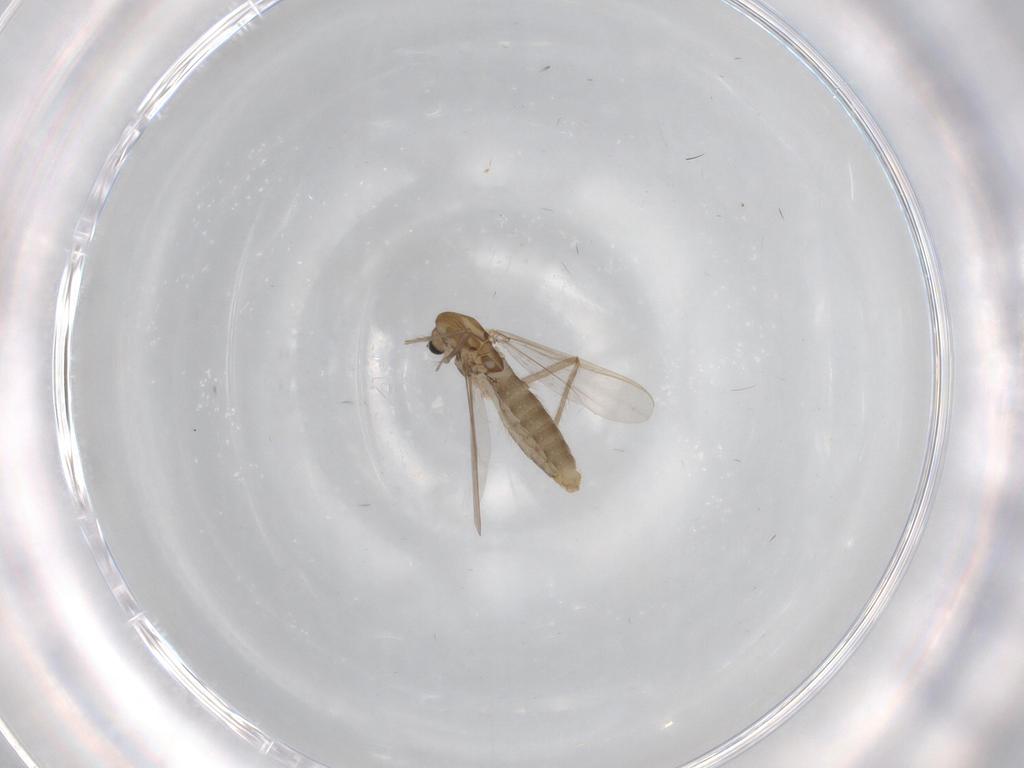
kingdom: Animalia
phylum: Arthropoda
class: Insecta
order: Diptera
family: Chironomidae
